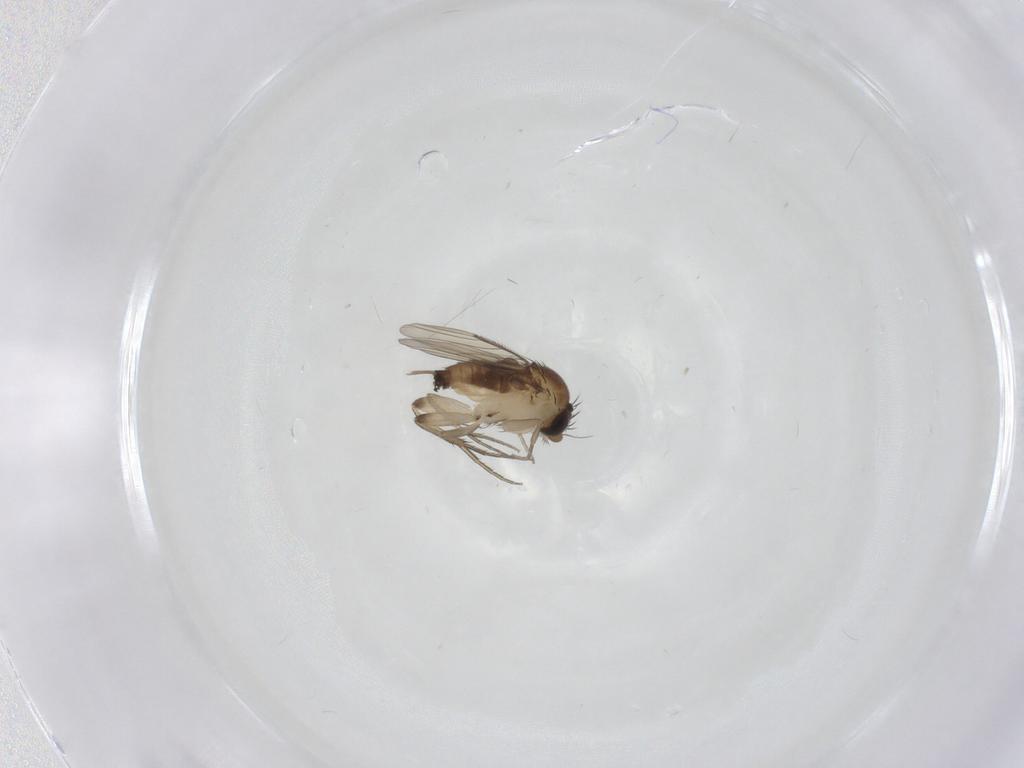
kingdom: Animalia
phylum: Arthropoda
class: Insecta
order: Diptera
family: Phoridae
